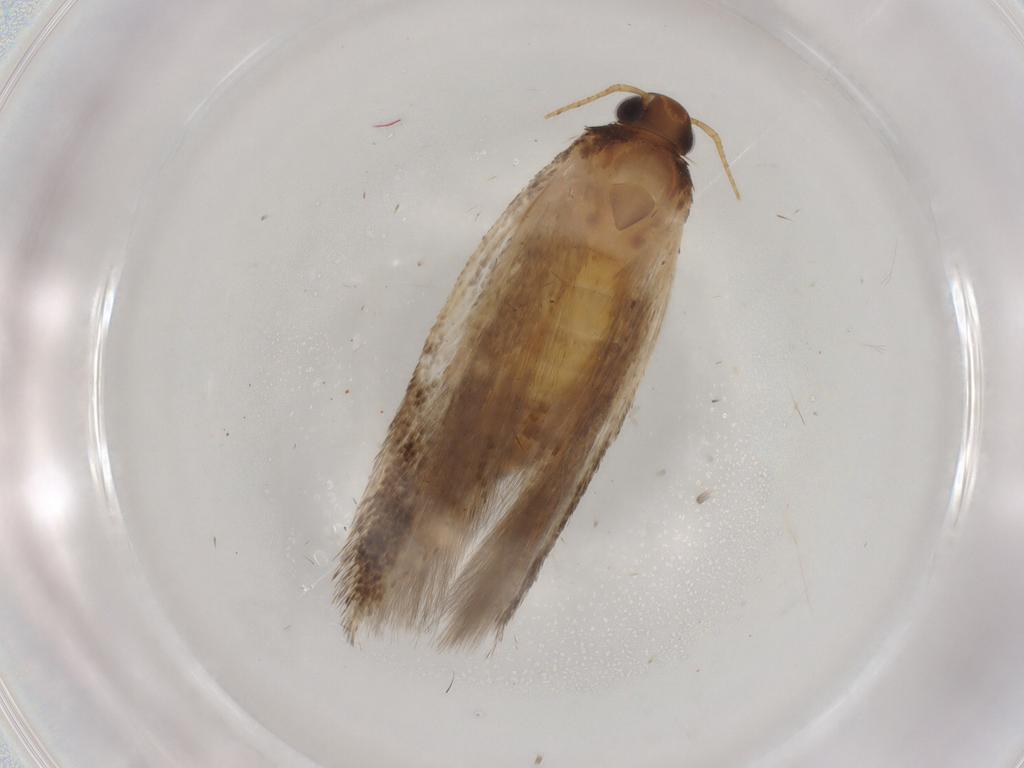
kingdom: Animalia
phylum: Arthropoda
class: Insecta
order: Lepidoptera
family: Gelechiidae
